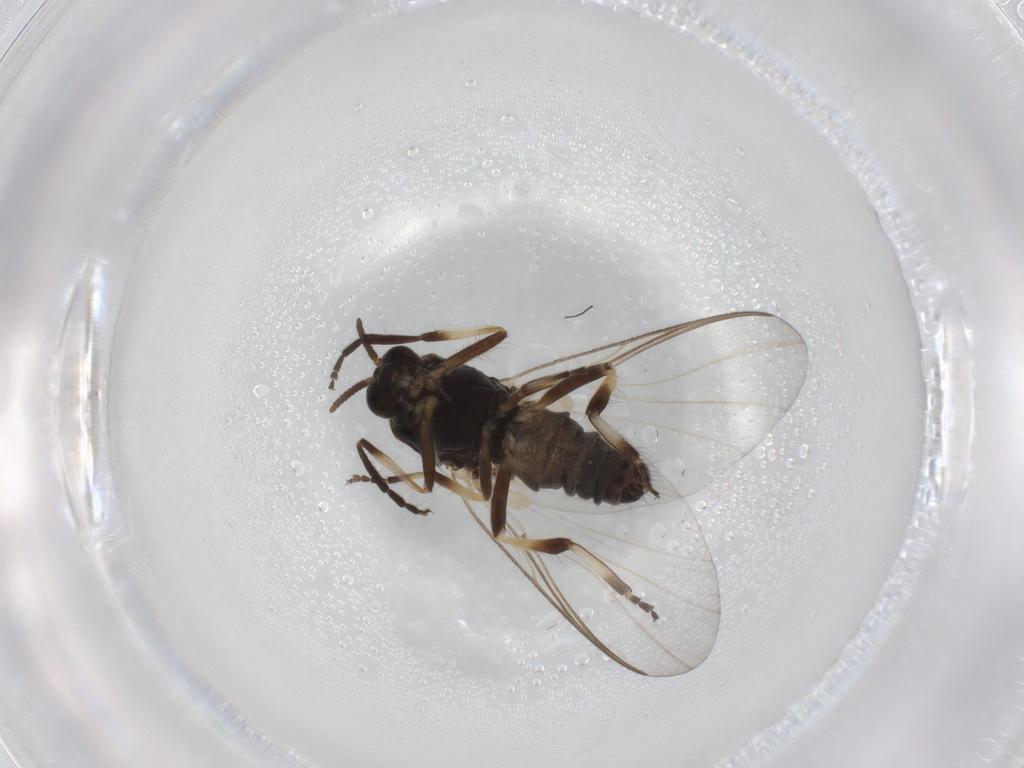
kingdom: Animalia
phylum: Arthropoda
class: Insecta
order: Diptera
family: Simuliidae
